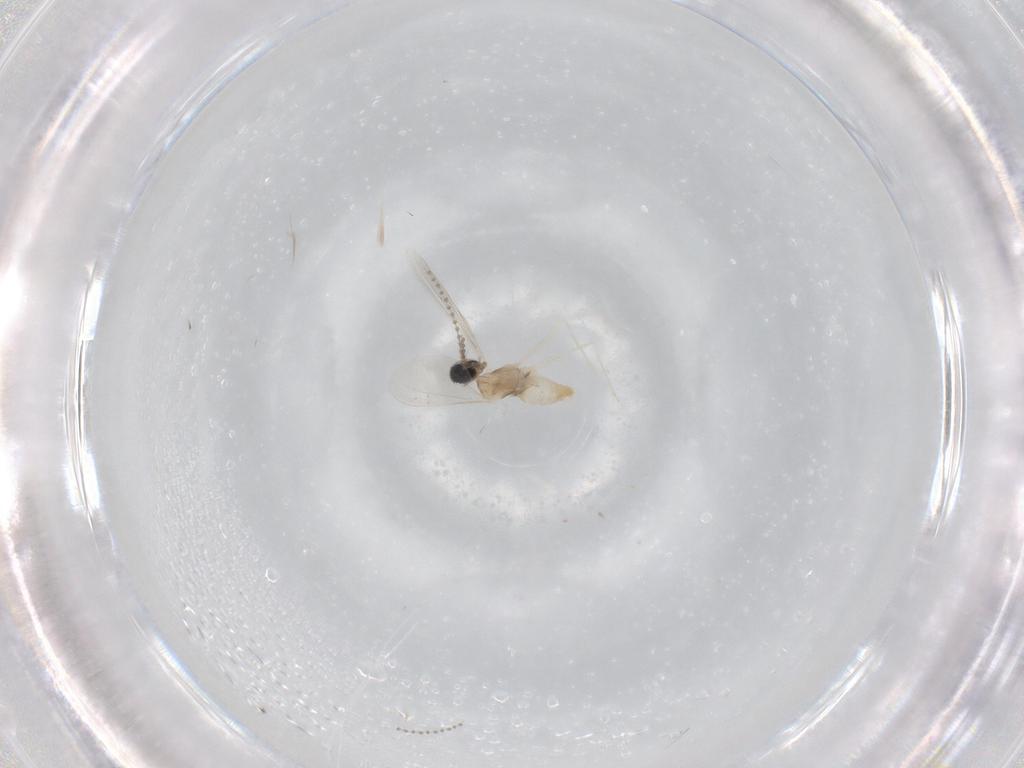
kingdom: Animalia
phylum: Arthropoda
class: Insecta
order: Diptera
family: Cecidomyiidae
